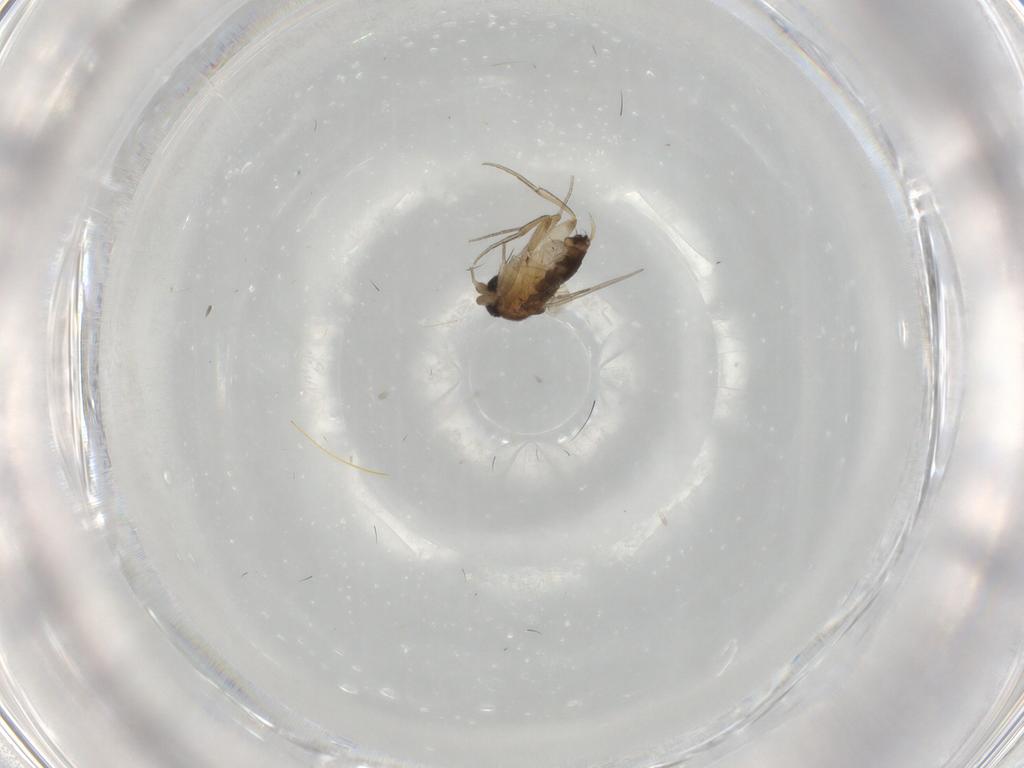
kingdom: Animalia
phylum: Arthropoda
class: Insecta
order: Diptera
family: Phoridae
